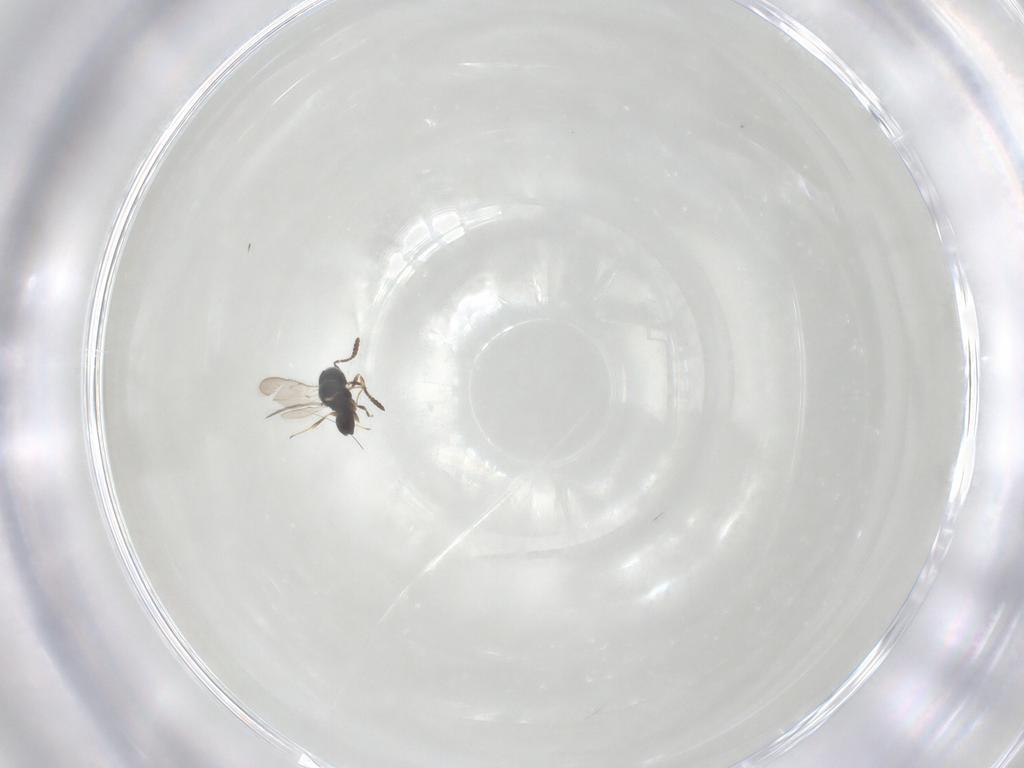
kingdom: Animalia
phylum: Arthropoda
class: Insecta
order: Hymenoptera
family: Scelionidae
